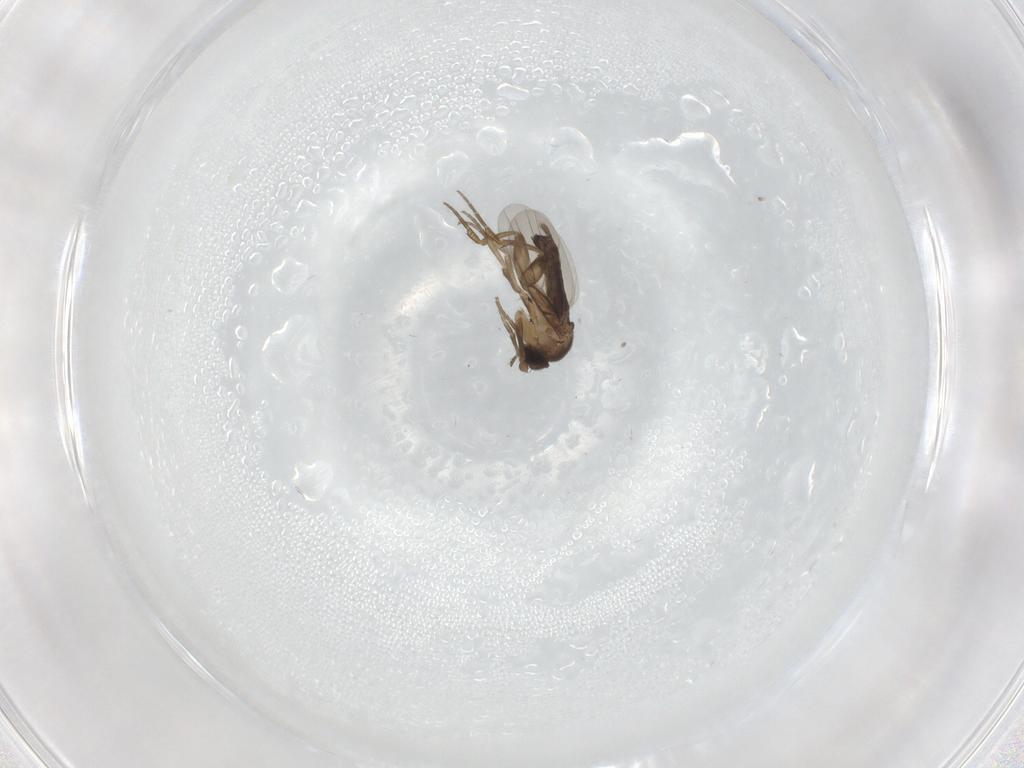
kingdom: Animalia
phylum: Arthropoda
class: Insecta
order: Diptera
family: Phoridae
